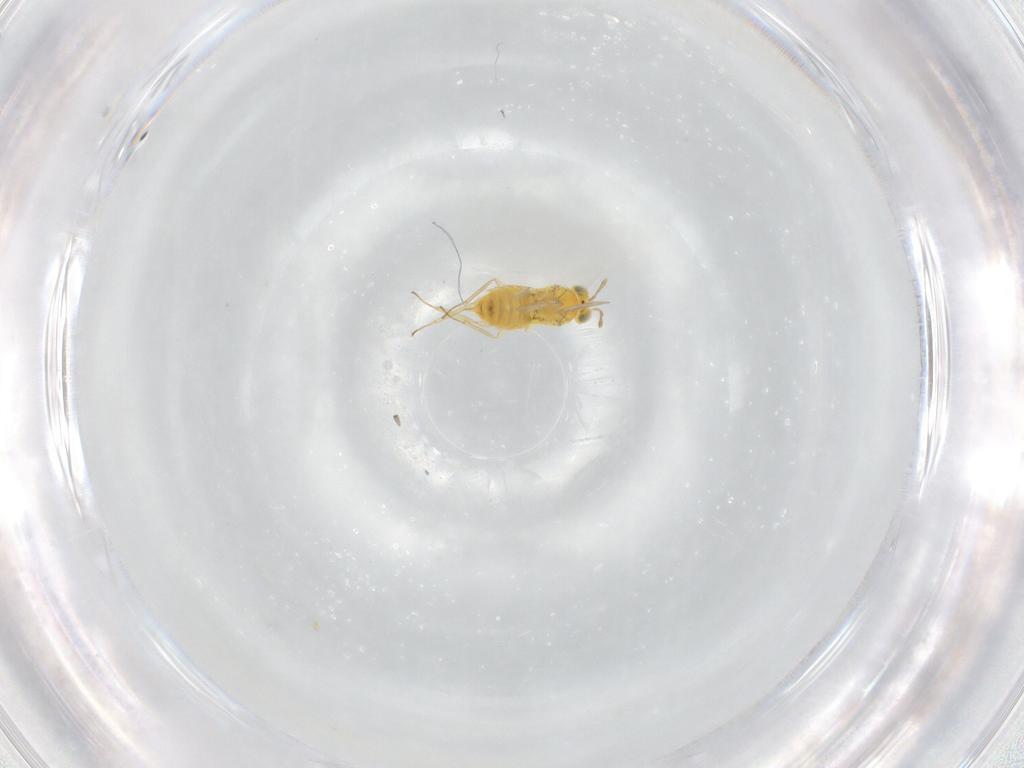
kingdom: Animalia
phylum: Arthropoda
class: Insecta
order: Hymenoptera
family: Aphelinidae
